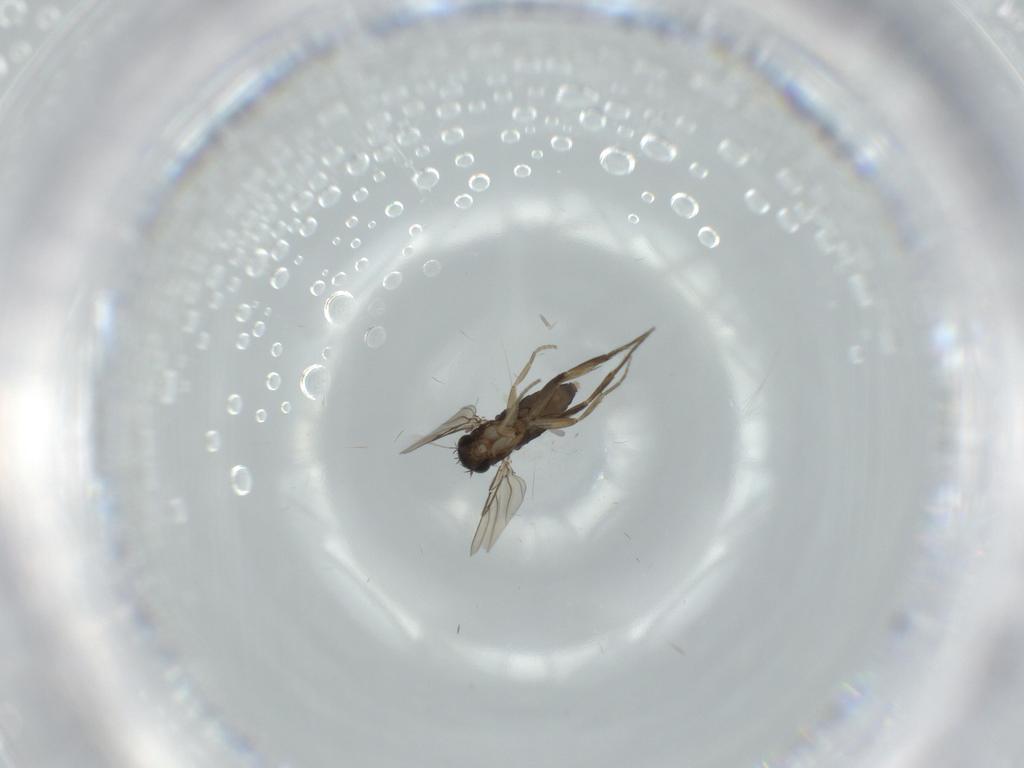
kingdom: Animalia
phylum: Arthropoda
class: Insecta
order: Diptera
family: Phoridae
